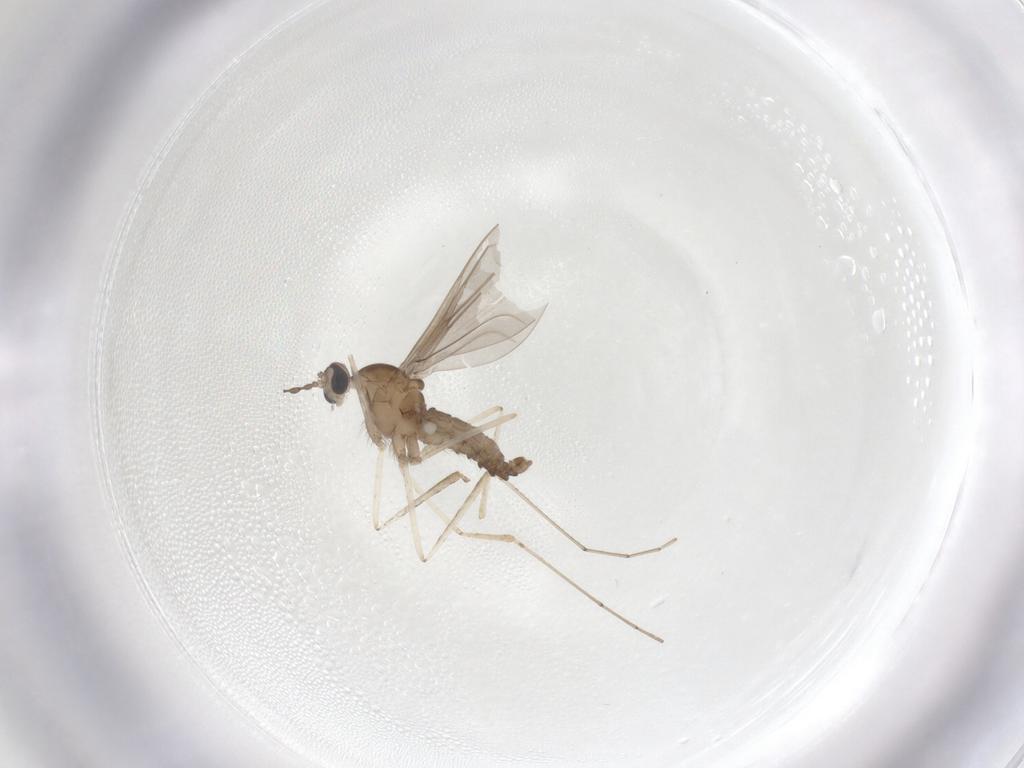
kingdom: Animalia
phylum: Arthropoda
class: Insecta
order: Diptera
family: Cecidomyiidae
